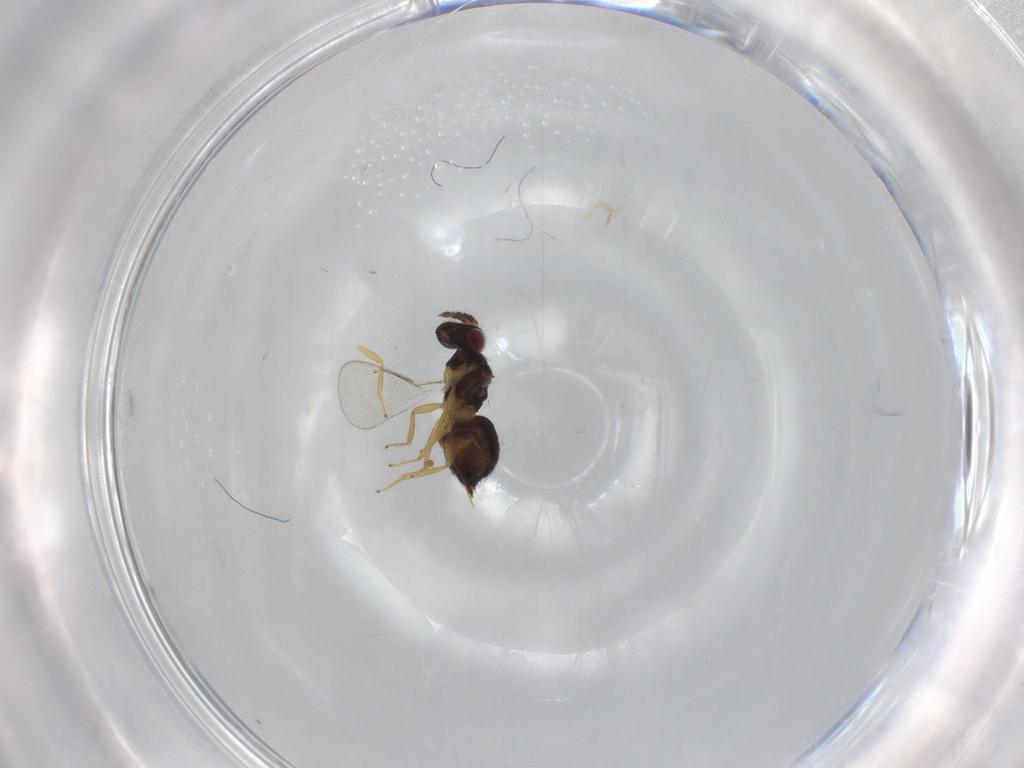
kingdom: Animalia
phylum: Arthropoda
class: Insecta
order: Hymenoptera
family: Eulophidae
